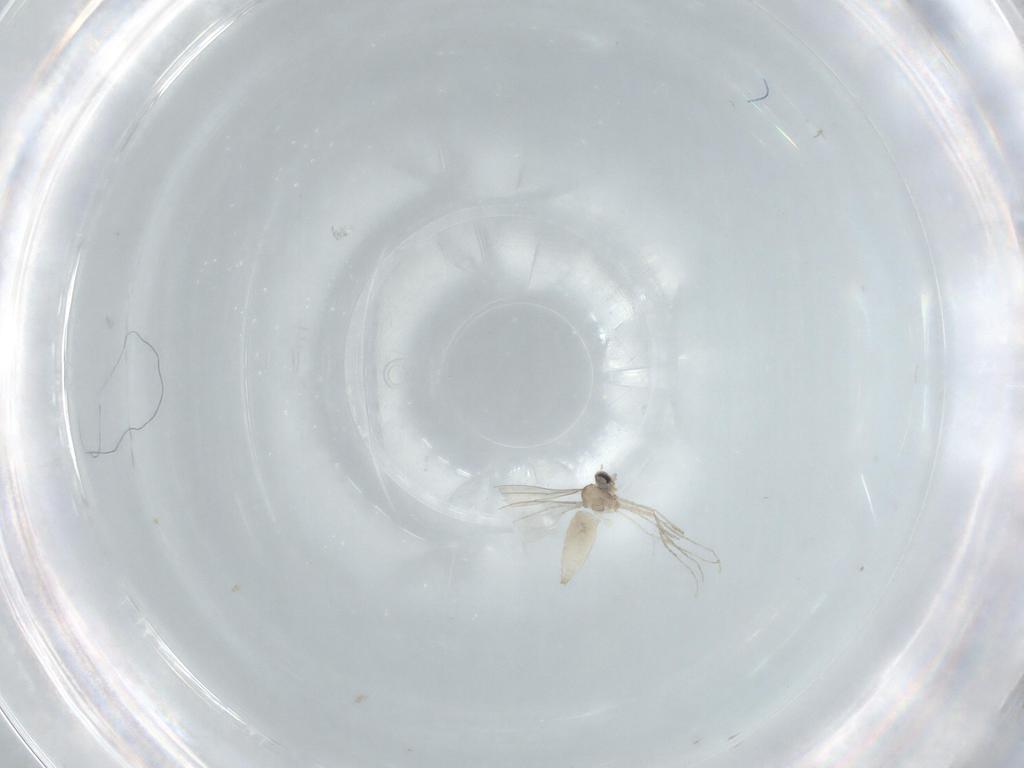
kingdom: Animalia
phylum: Arthropoda
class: Insecta
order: Diptera
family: Cecidomyiidae
